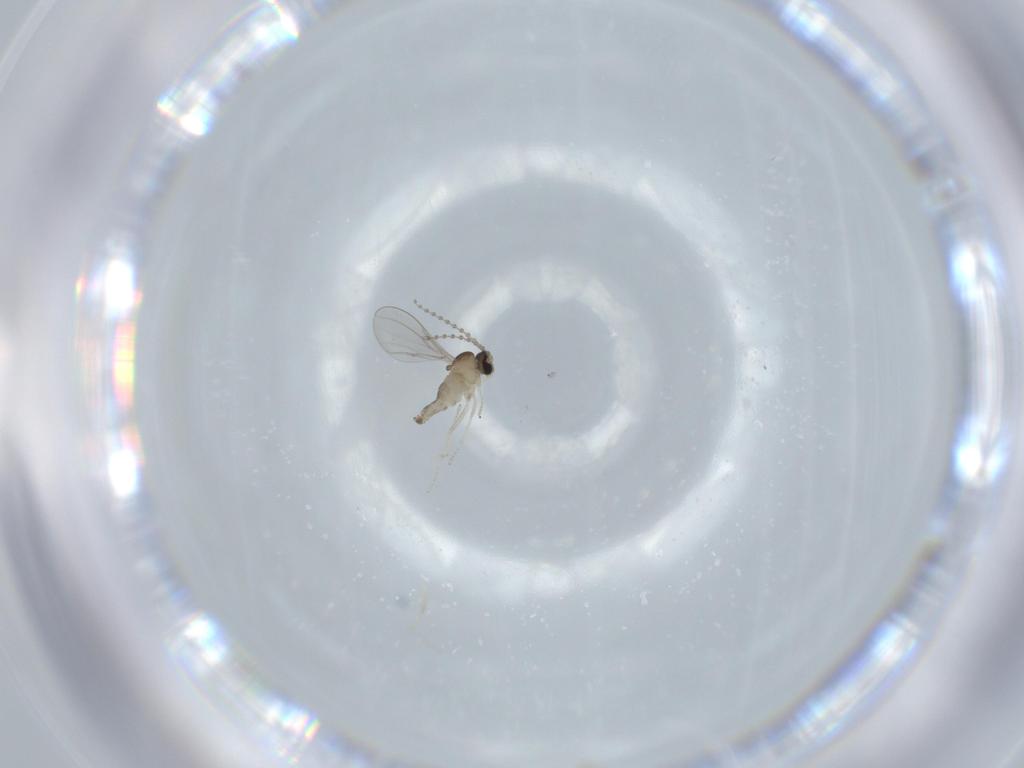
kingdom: Animalia
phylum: Arthropoda
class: Insecta
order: Diptera
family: Cecidomyiidae
